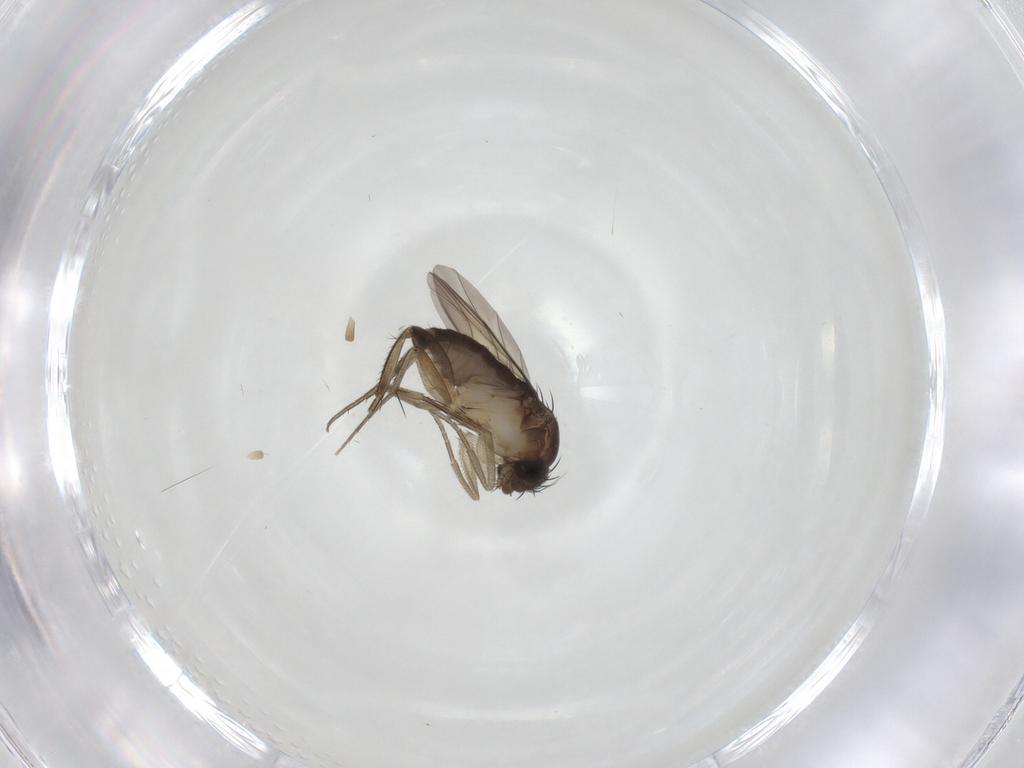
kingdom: Animalia
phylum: Arthropoda
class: Insecta
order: Diptera
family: Phoridae
